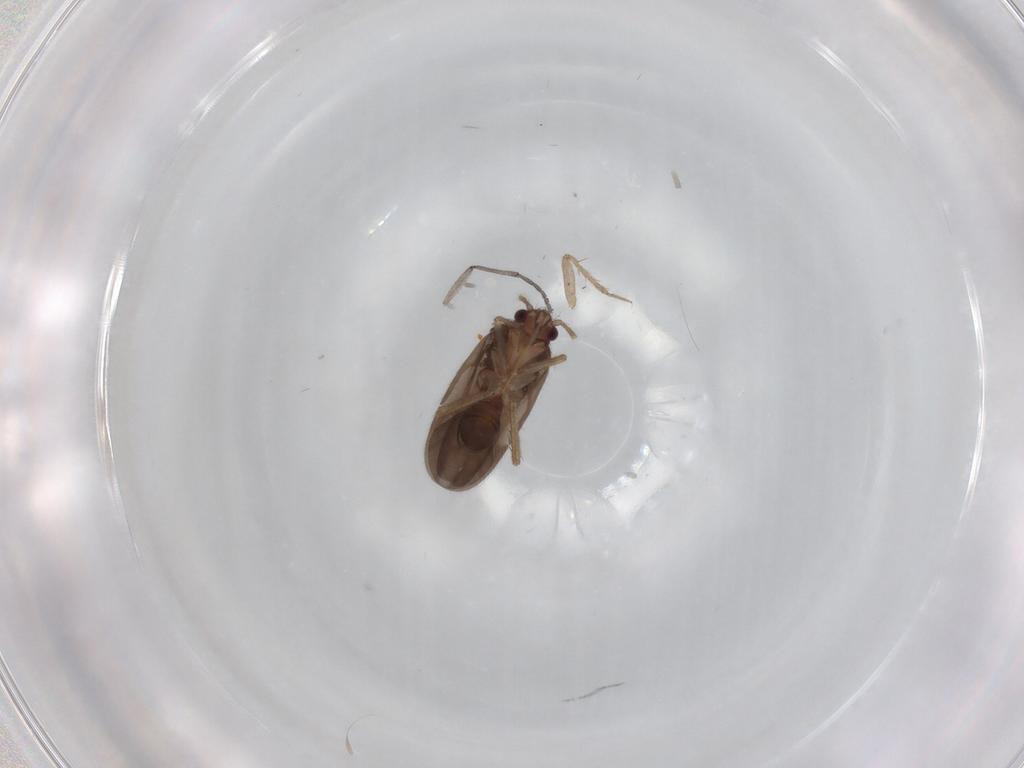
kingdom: Animalia
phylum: Arthropoda
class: Insecta
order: Hemiptera
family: Ceratocombidae
